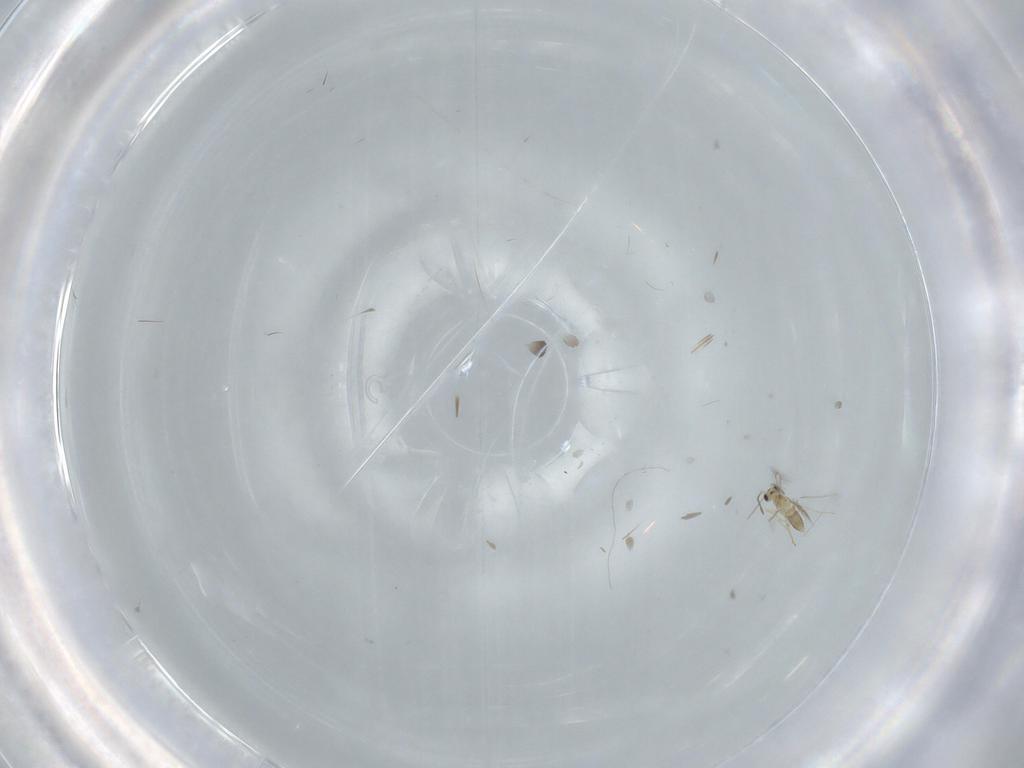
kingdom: Animalia
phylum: Arthropoda
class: Insecta
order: Hymenoptera
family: Mymaridae
